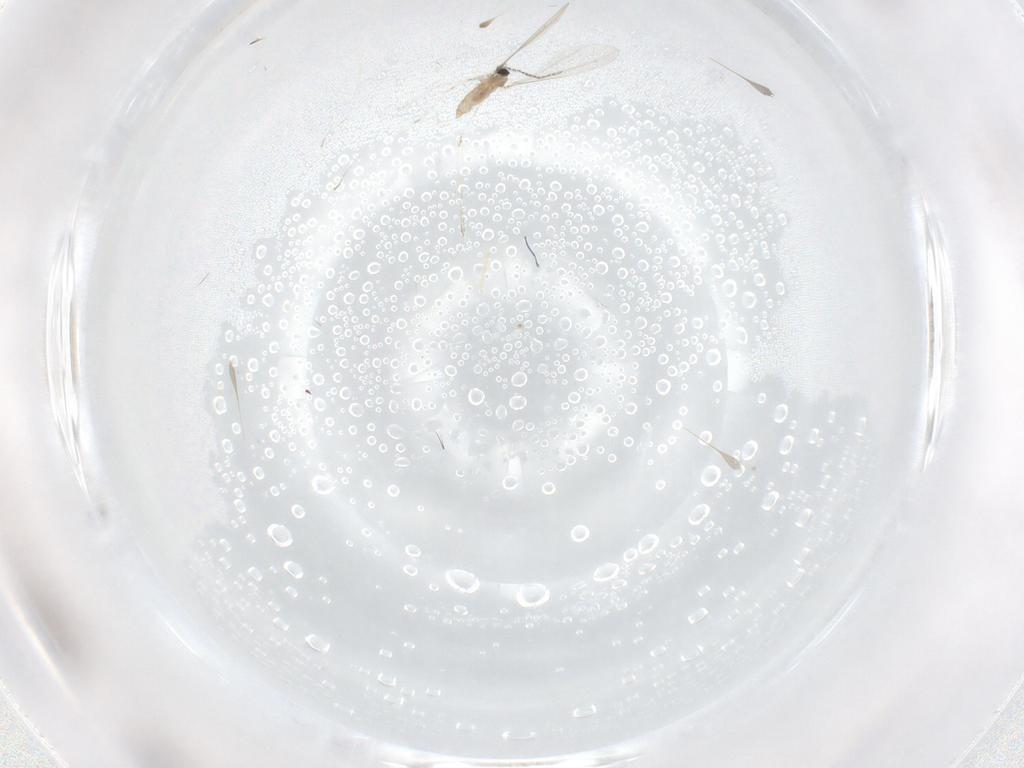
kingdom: Animalia
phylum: Arthropoda
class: Insecta
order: Diptera
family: Cecidomyiidae
